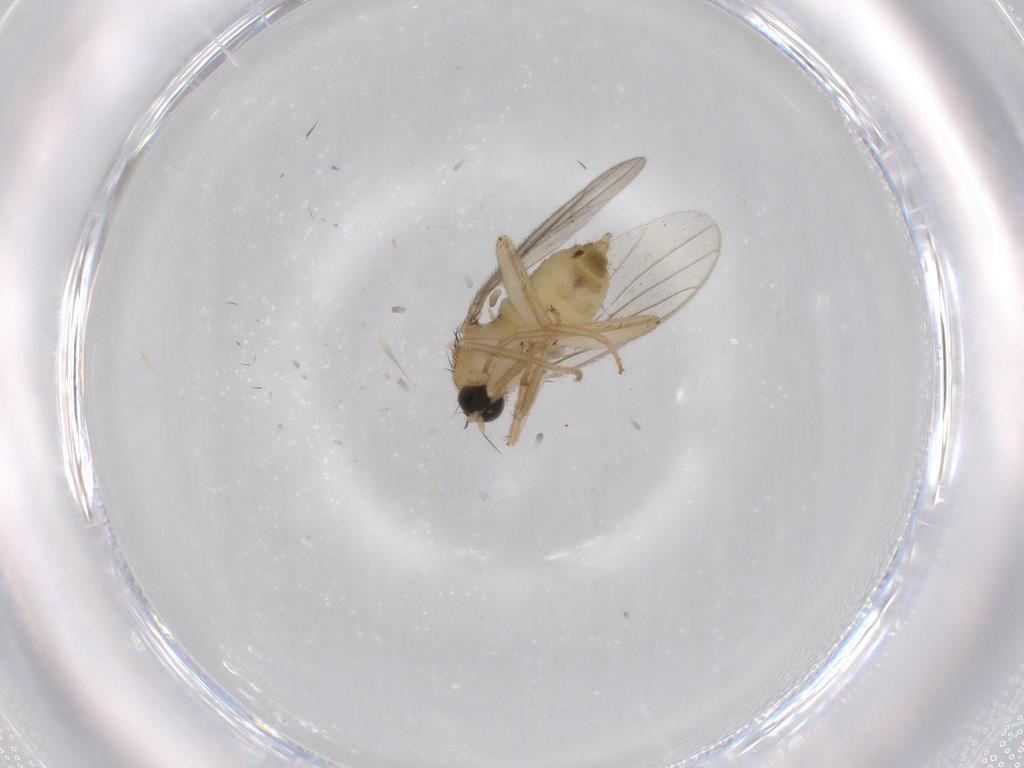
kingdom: Animalia
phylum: Arthropoda
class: Insecta
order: Diptera
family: Hybotidae
